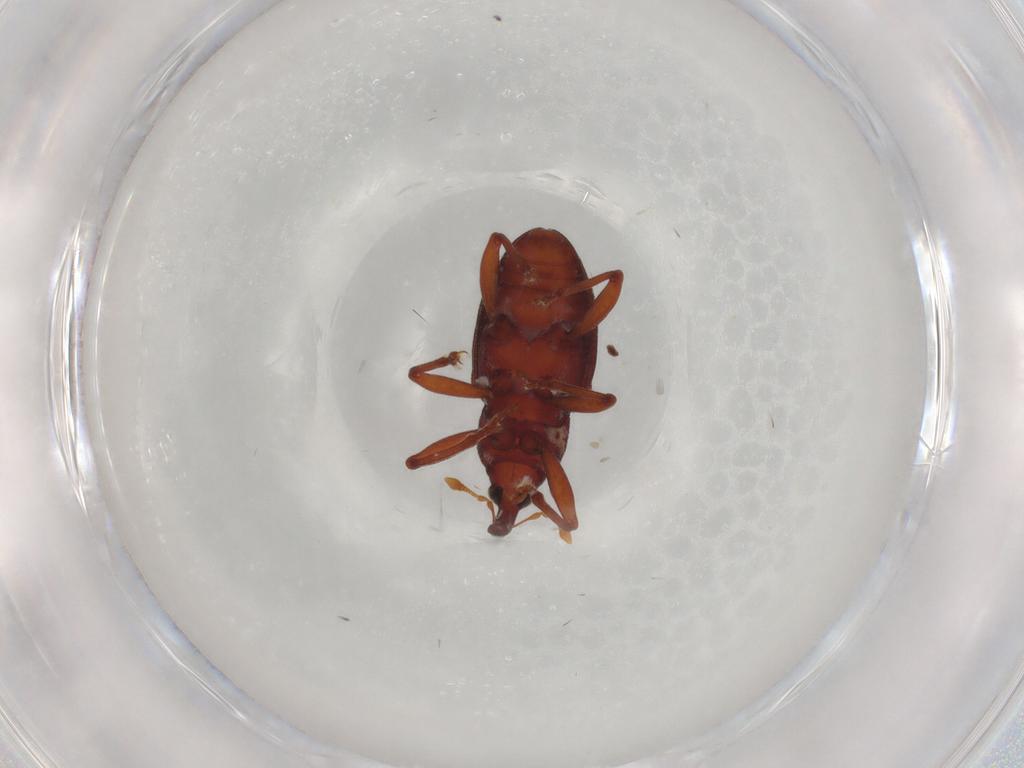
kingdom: Animalia
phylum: Arthropoda
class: Insecta
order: Coleoptera
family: Curculionidae
